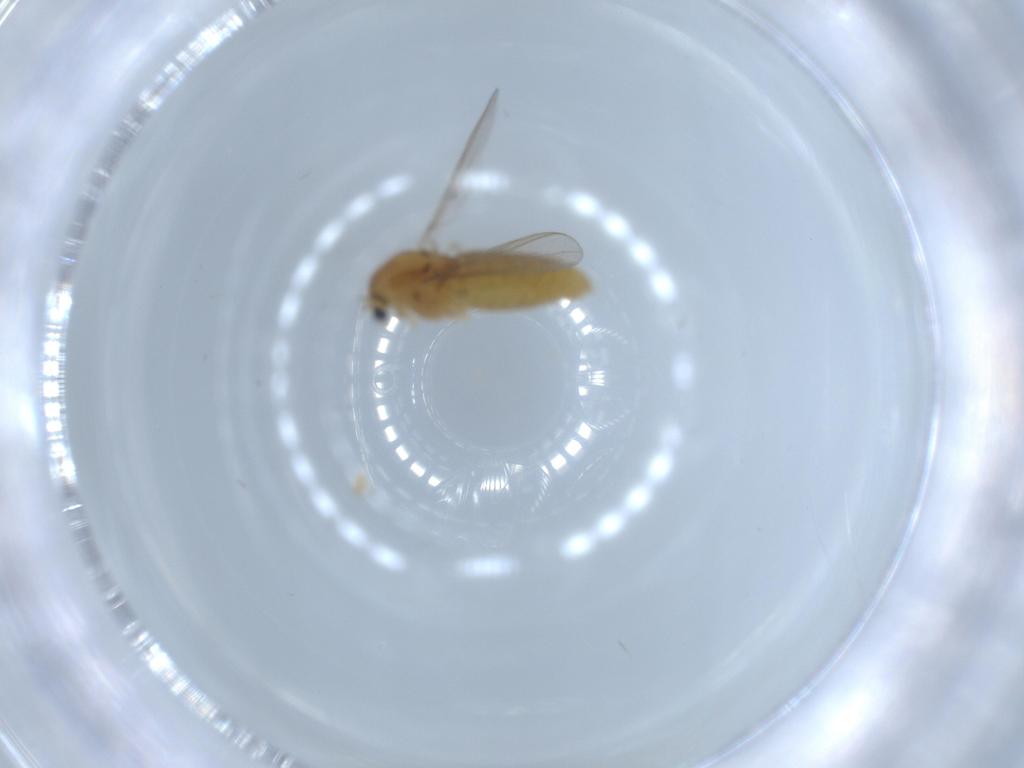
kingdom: Animalia
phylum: Arthropoda
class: Insecta
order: Diptera
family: Chironomidae
